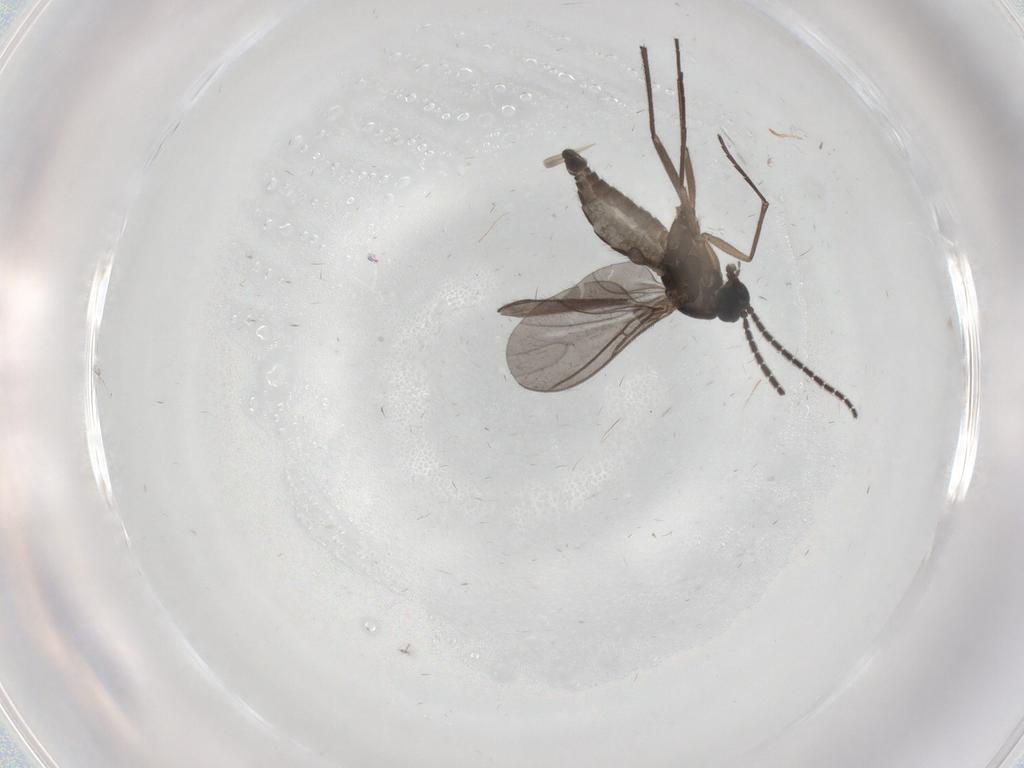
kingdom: Animalia
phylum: Arthropoda
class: Insecta
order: Diptera
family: Sciaridae
